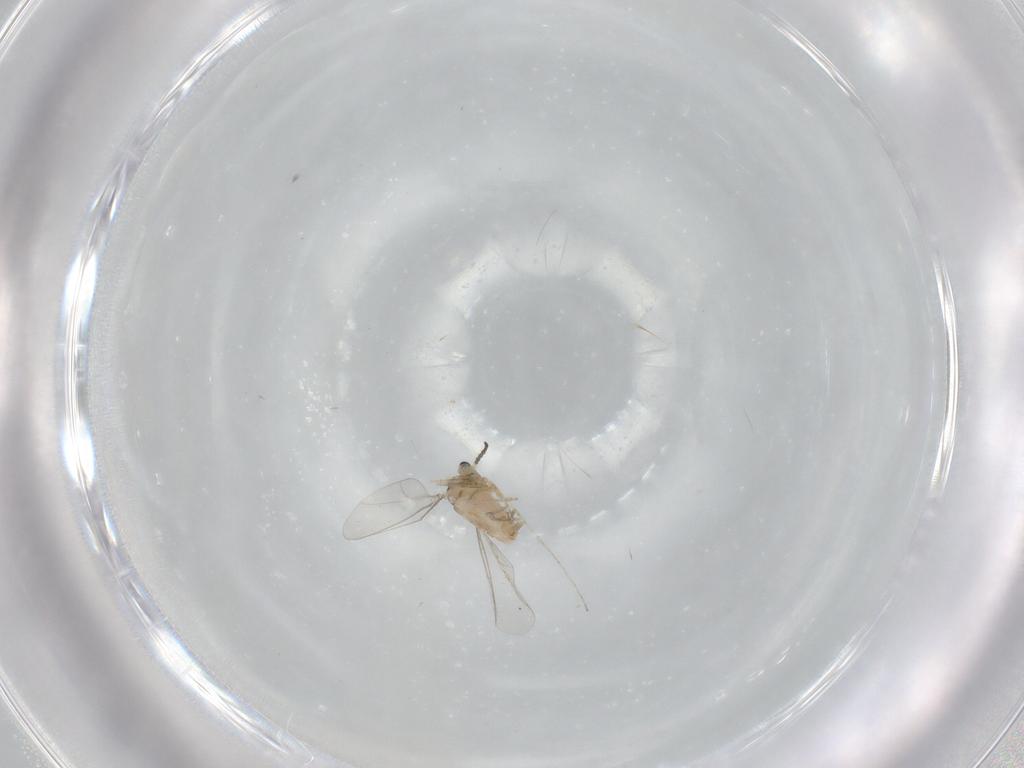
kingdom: Animalia
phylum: Arthropoda
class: Insecta
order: Diptera
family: Cecidomyiidae
